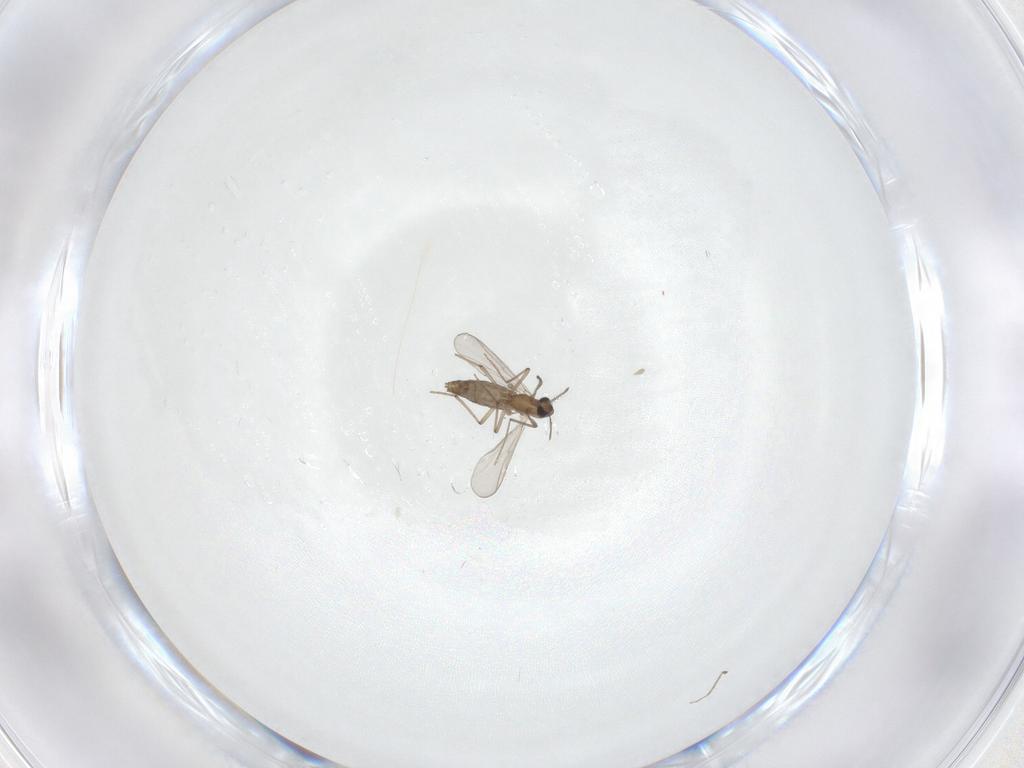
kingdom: Animalia
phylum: Arthropoda
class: Insecta
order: Diptera
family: Chironomidae
